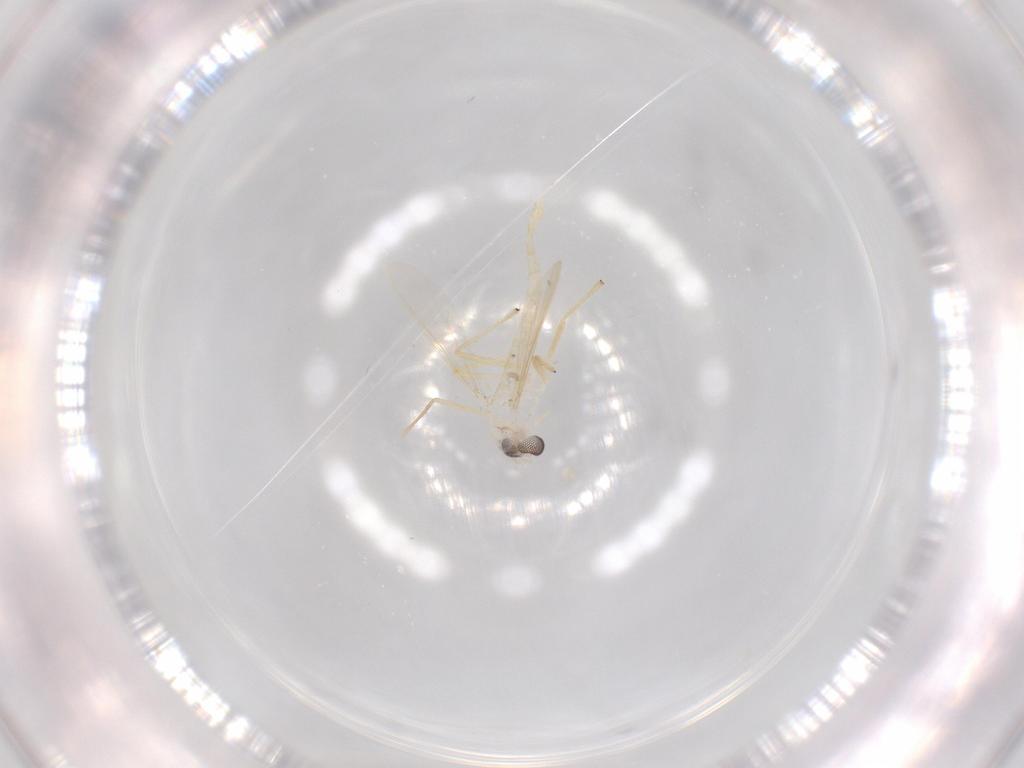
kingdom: Animalia
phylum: Arthropoda
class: Insecta
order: Diptera
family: Chironomidae
